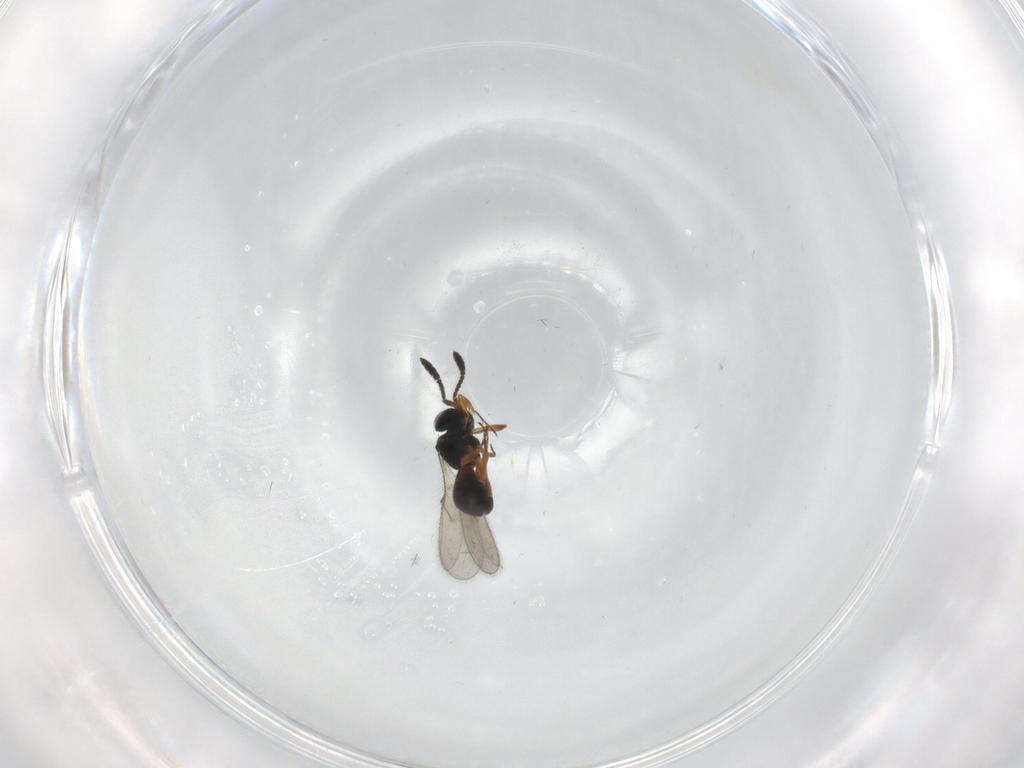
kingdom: Animalia
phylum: Arthropoda
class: Insecta
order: Hymenoptera
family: Scelionidae
